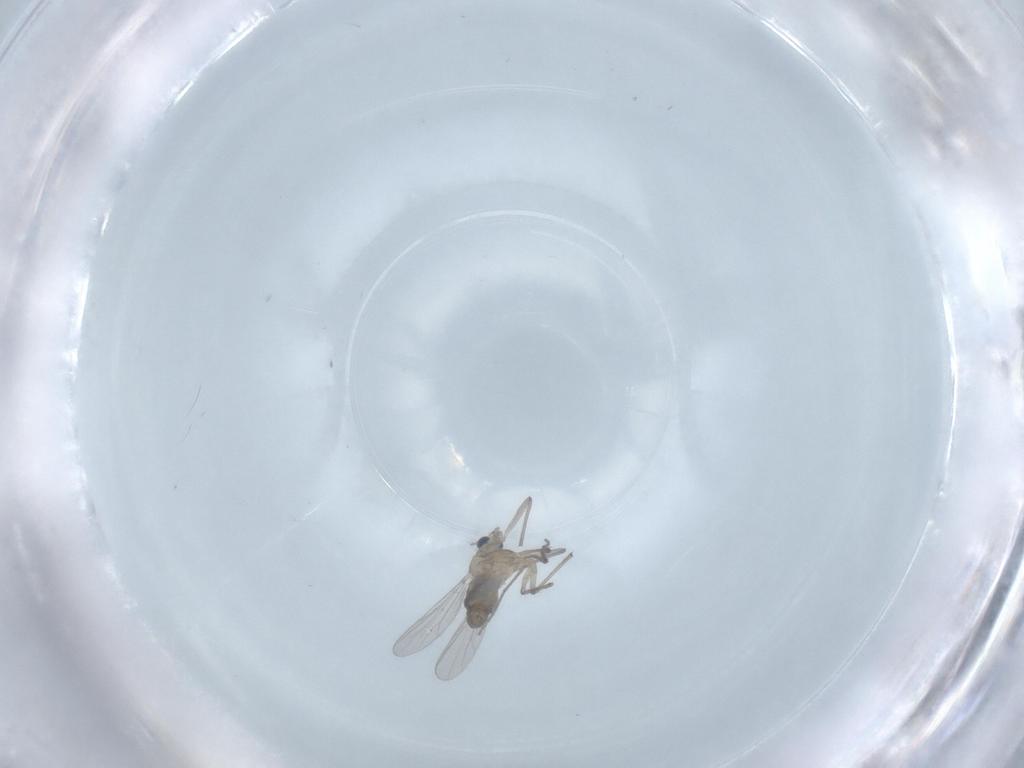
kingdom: Animalia
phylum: Arthropoda
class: Insecta
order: Diptera
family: Chironomidae
